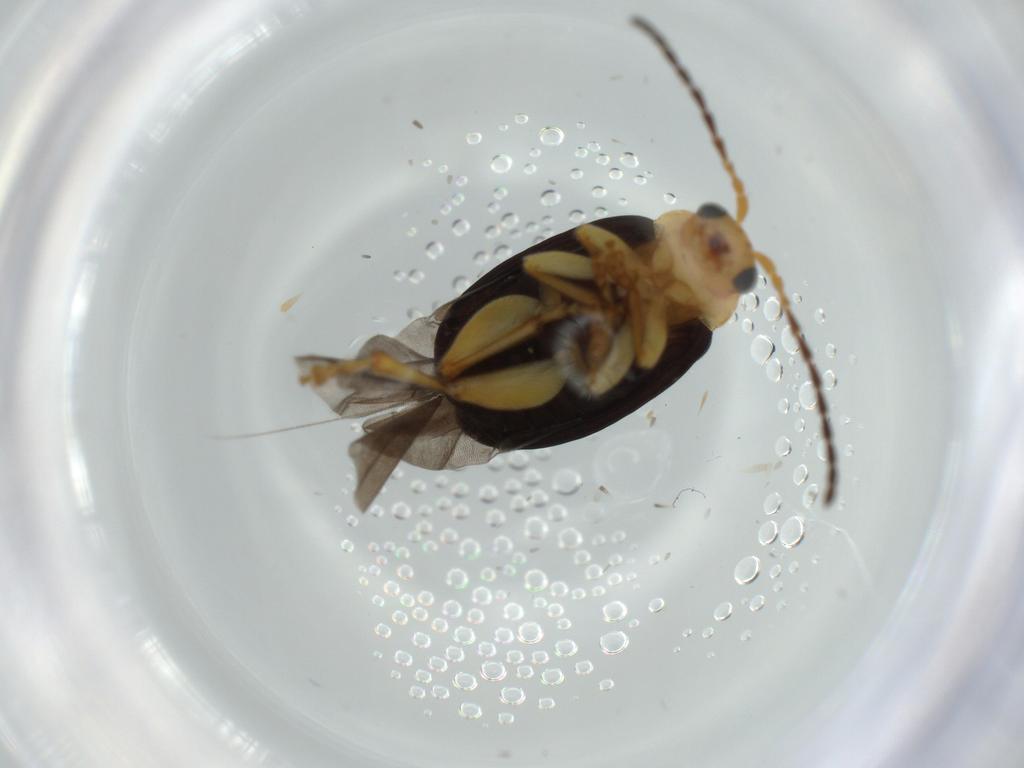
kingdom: Animalia
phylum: Arthropoda
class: Insecta
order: Coleoptera
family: Chrysomelidae
